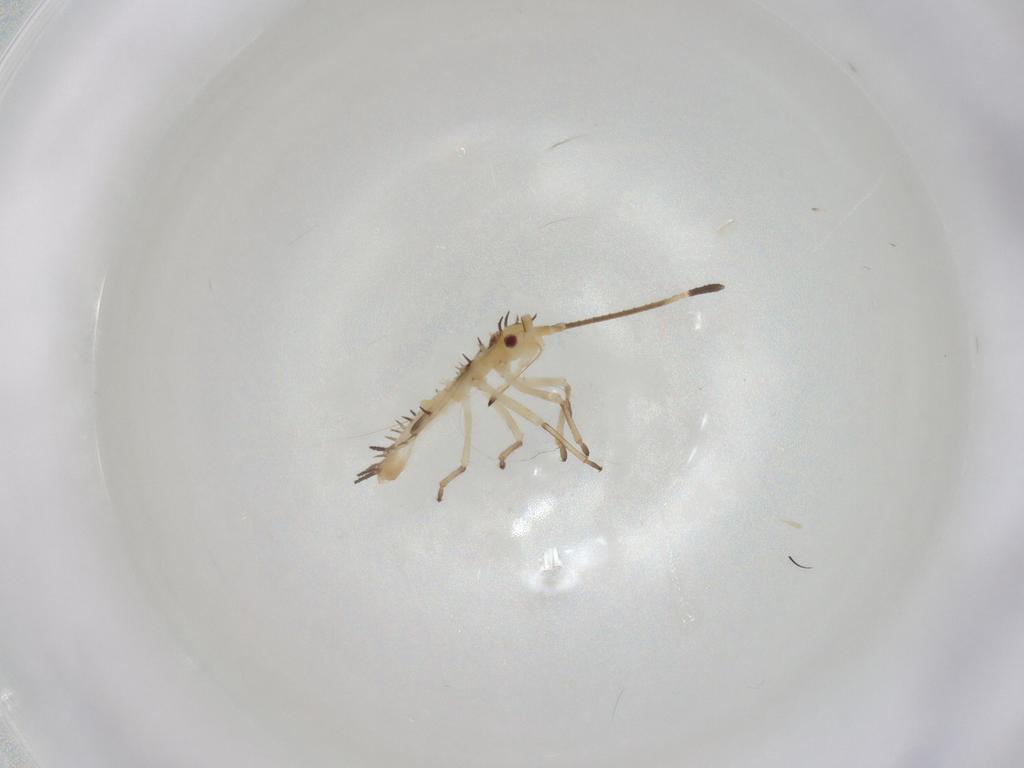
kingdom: Animalia
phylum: Arthropoda
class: Insecta
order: Hemiptera
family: Tingidae
